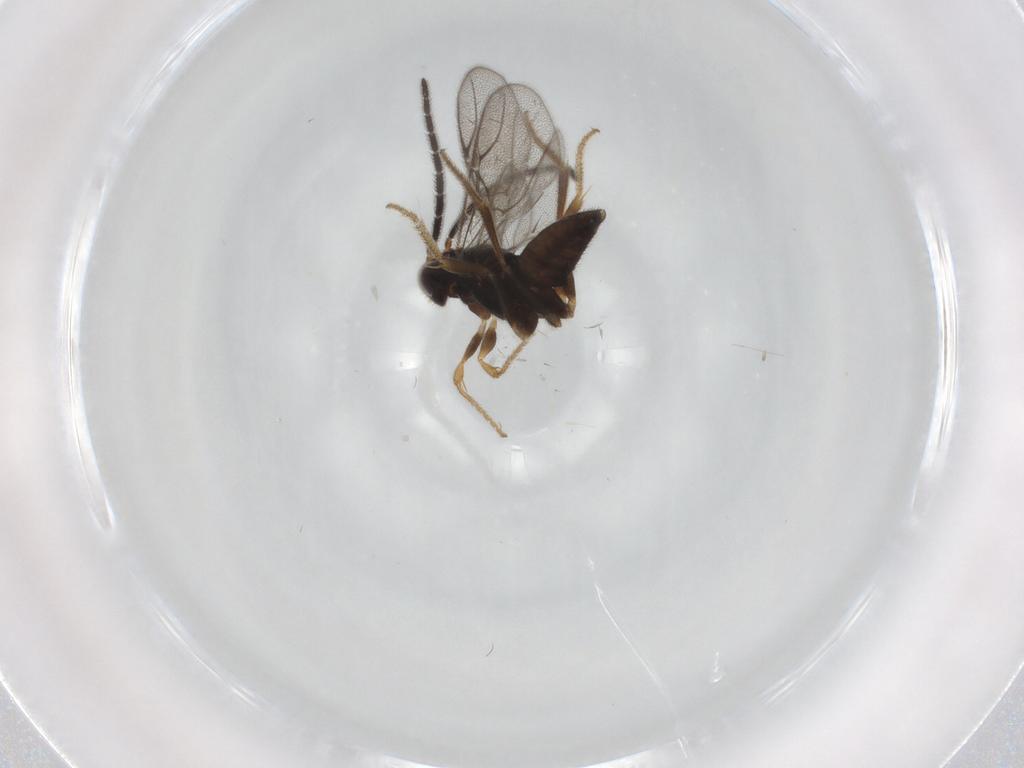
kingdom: Animalia
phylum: Arthropoda
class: Insecta
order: Hymenoptera
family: Dryinidae
